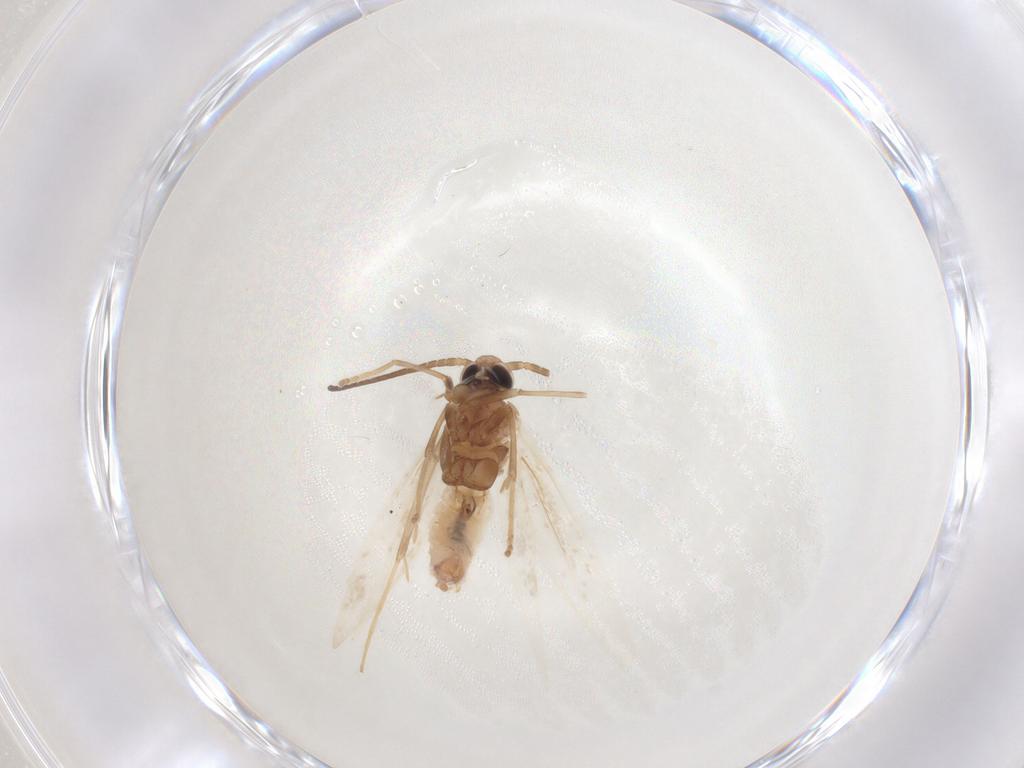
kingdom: Animalia
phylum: Arthropoda
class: Insecta
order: Lepidoptera
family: Coleophoridae
